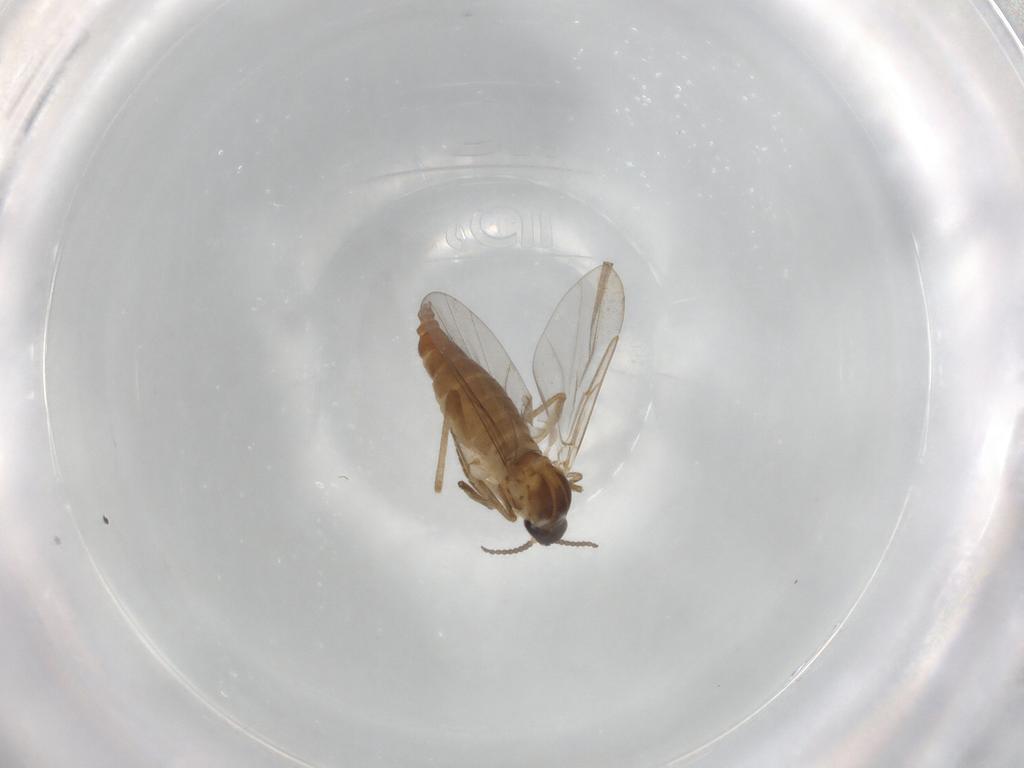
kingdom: Animalia
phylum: Arthropoda
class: Insecta
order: Diptera
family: Cecidomyiidae
